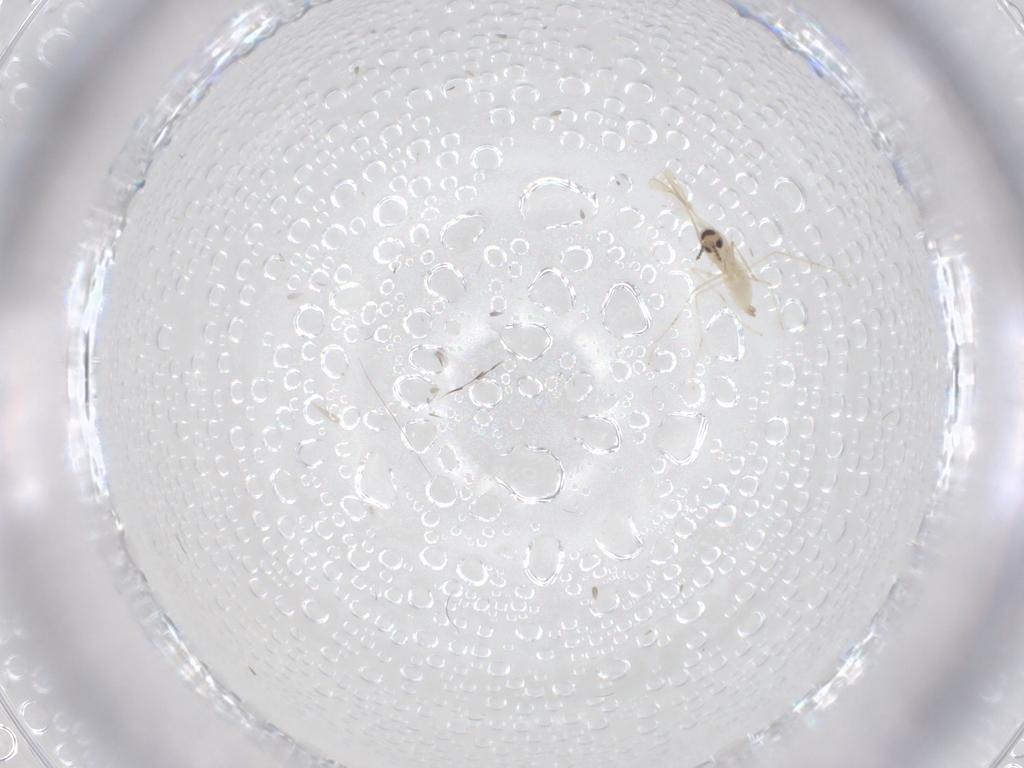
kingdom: Animalia
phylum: Arthropoda
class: Insecta
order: Diptera
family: Cecidomyiidae
